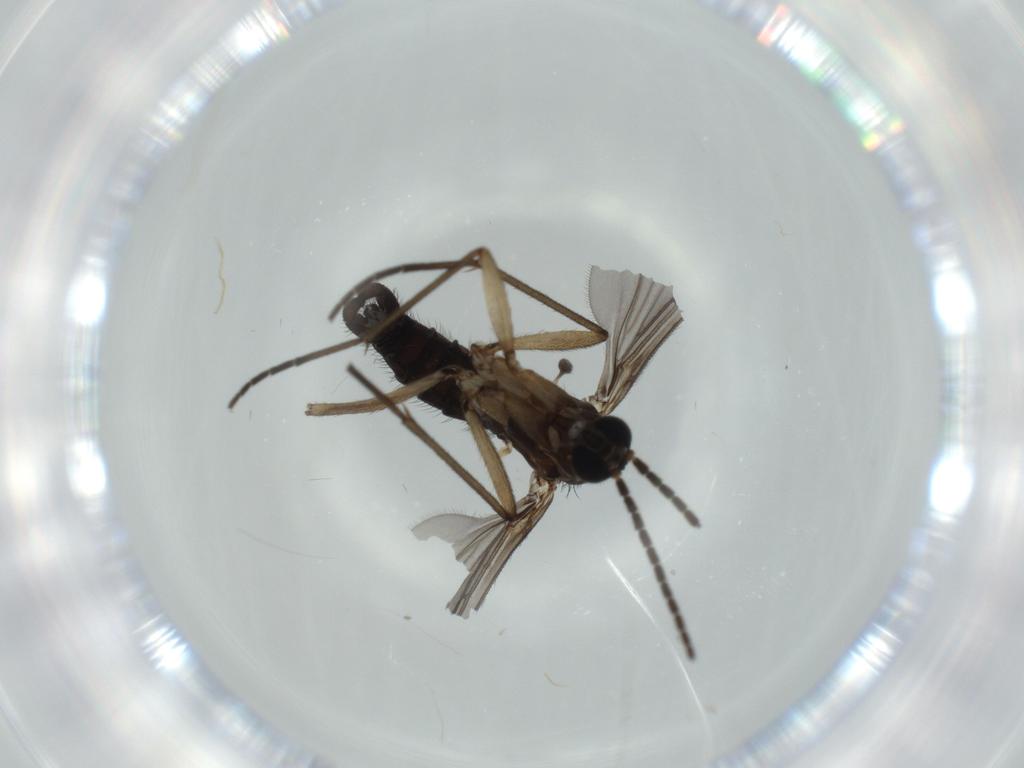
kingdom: Animalia
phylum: Arthropoda
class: Insecta
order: Diptera
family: Sciaridae
